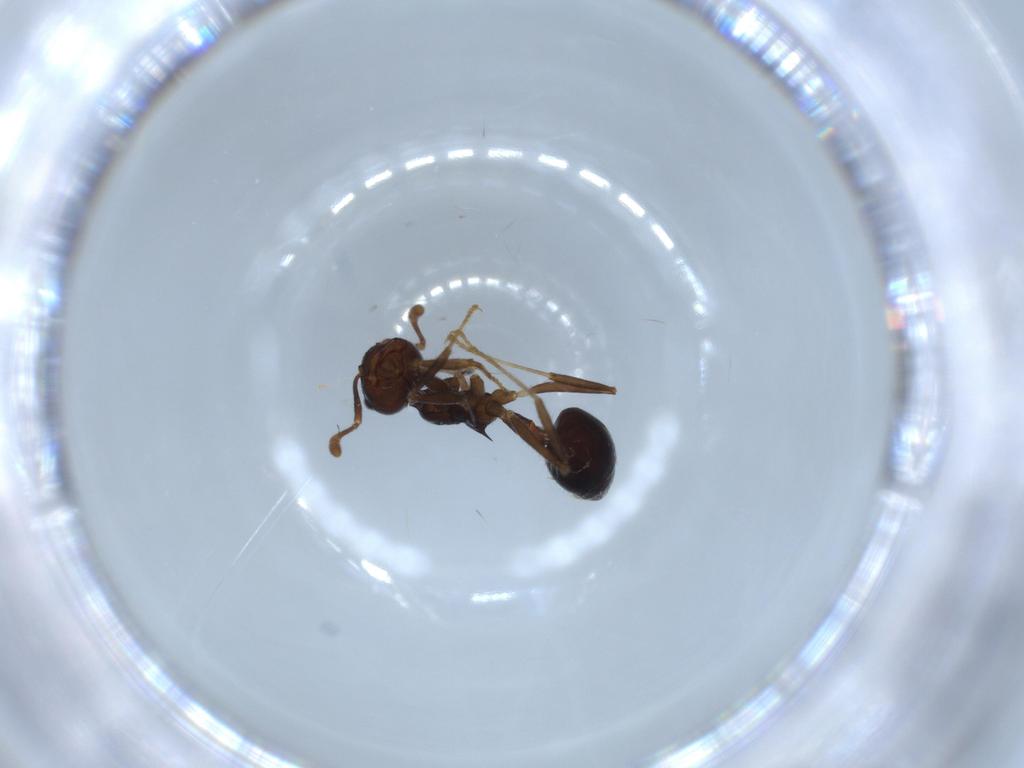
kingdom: Animalia
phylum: Arthropoda
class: Insecta
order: Hymenoptera
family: Formicidae
